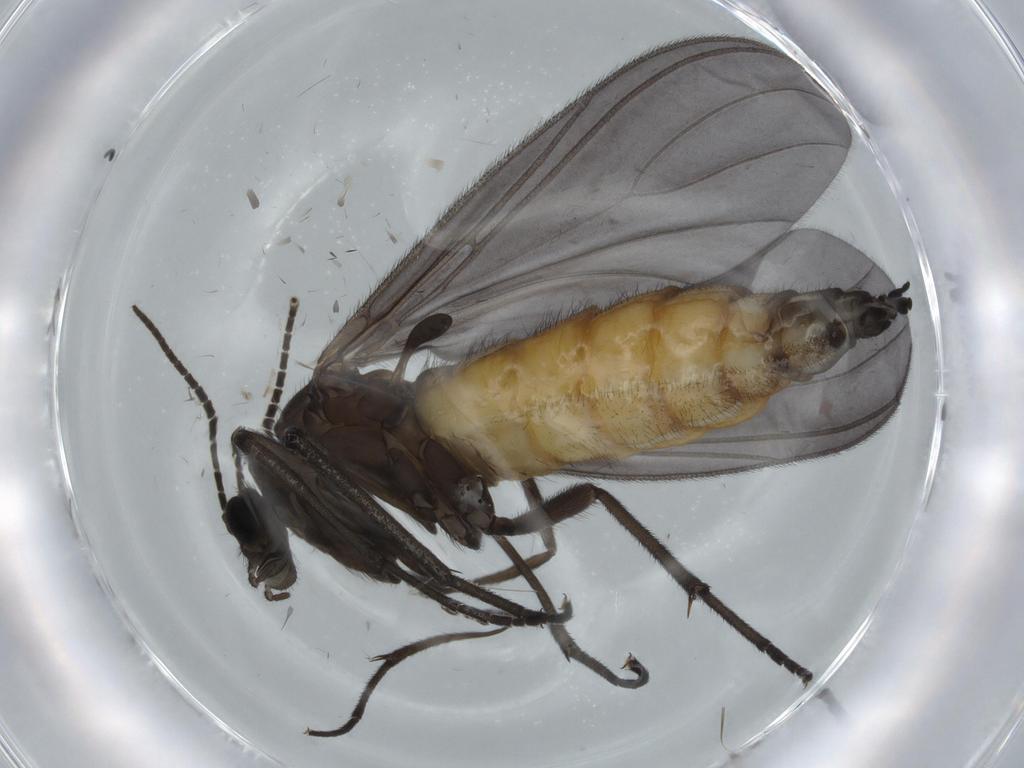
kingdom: Animalia
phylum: Arthropoda
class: Insecta
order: Diptera
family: Cecidomyiidae
